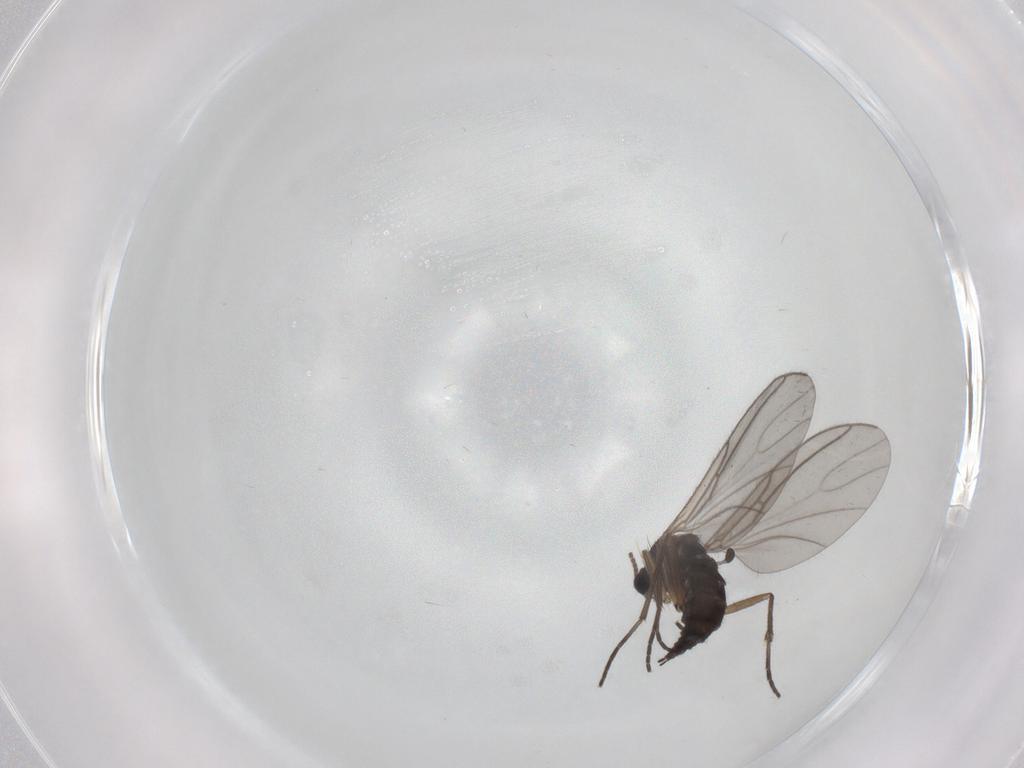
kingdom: Animalia
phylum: Arthropoda
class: Insecta
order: Diptera
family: Sciaridae
